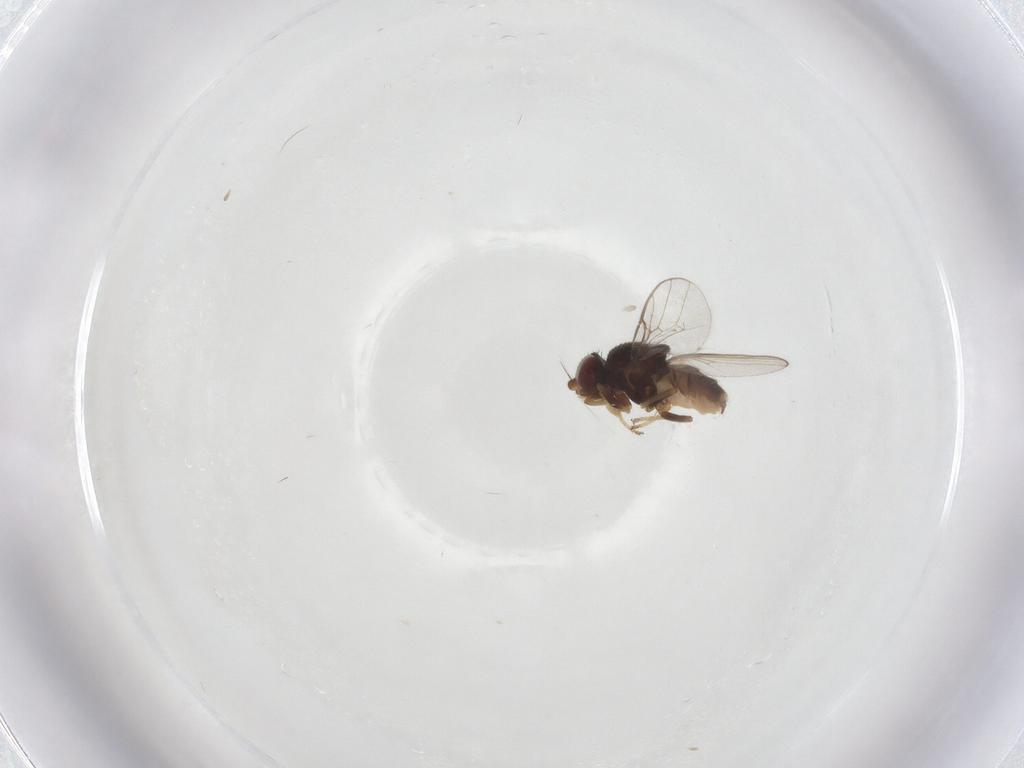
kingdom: Animalia
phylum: Arthropoda
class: Insecta
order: Diptera
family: Chloropidae
